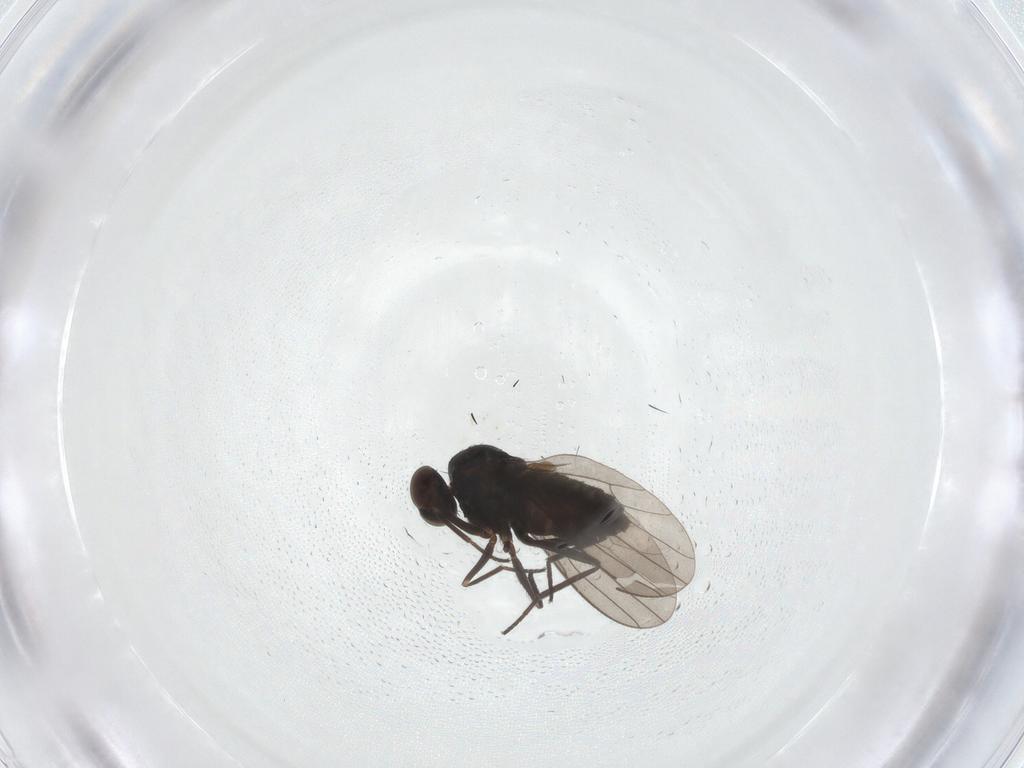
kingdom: Animalia
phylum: Arthropoda
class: Insecta
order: Diptera
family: Dolichopodidae
